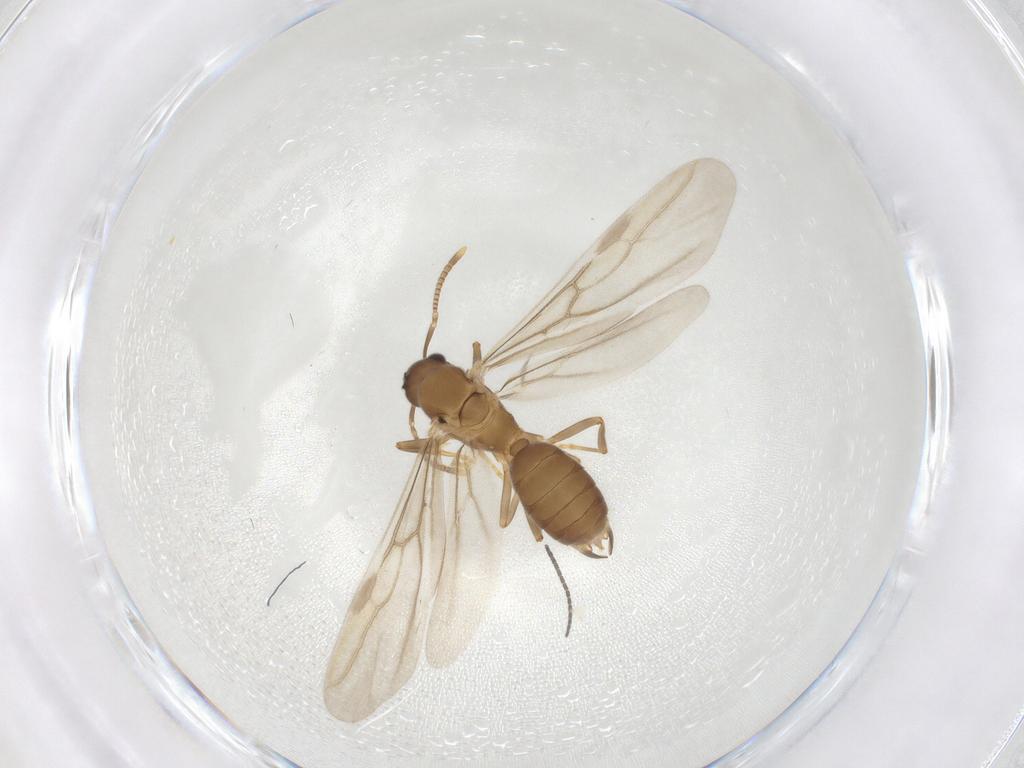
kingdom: Animalia
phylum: Arthropoda
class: Insecta
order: Hymenoptera
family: Formicidae
